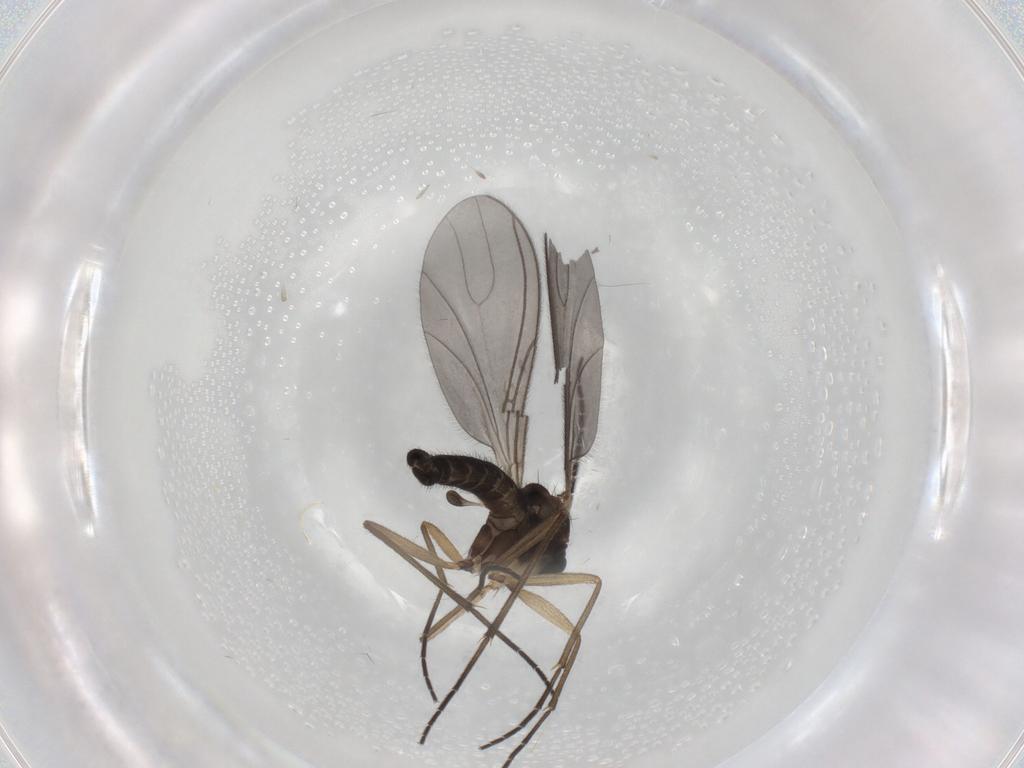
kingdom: Animalia
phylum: Arthropoda
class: Insecta
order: Diptera
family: Sciaridae
